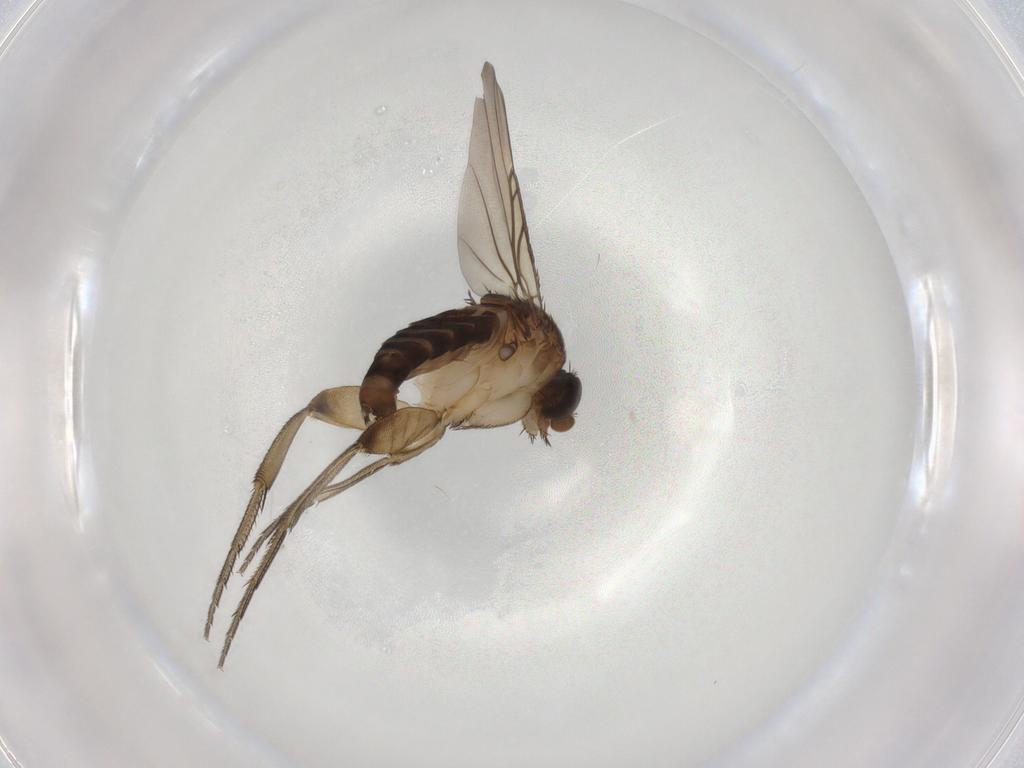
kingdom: Animalia
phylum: Arthropoda
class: Insecta
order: Diptera
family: Phoridae
